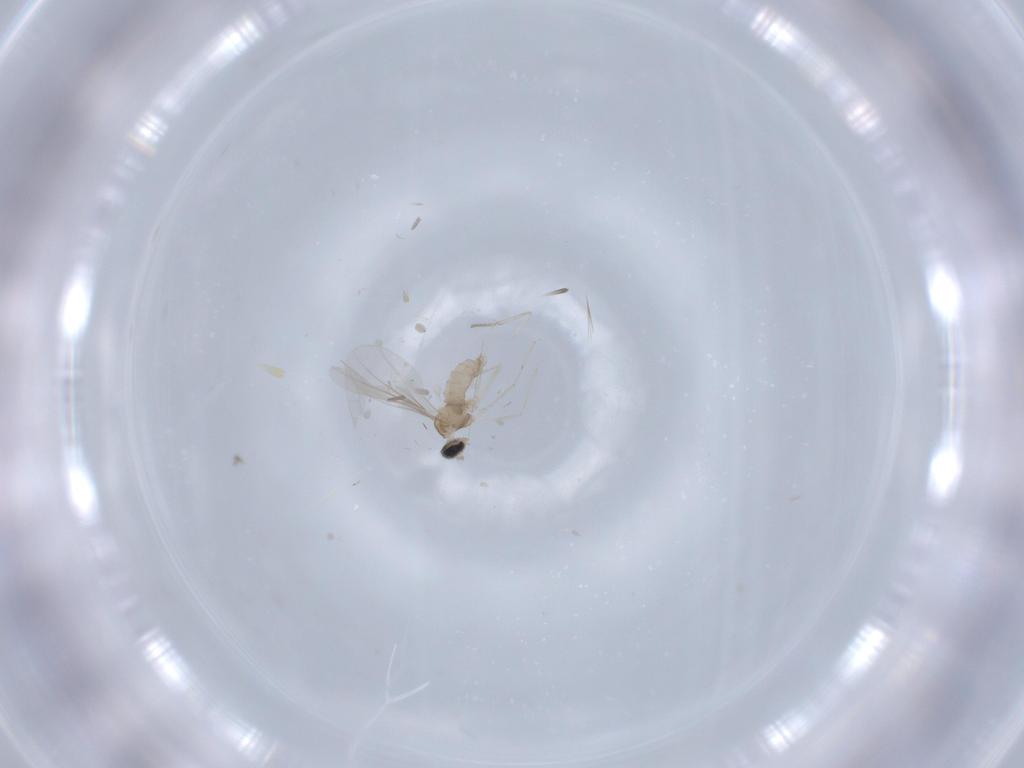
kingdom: Animalia
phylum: Arthropoda
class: Insecta
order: Diptera
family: Cecidomyiidae
